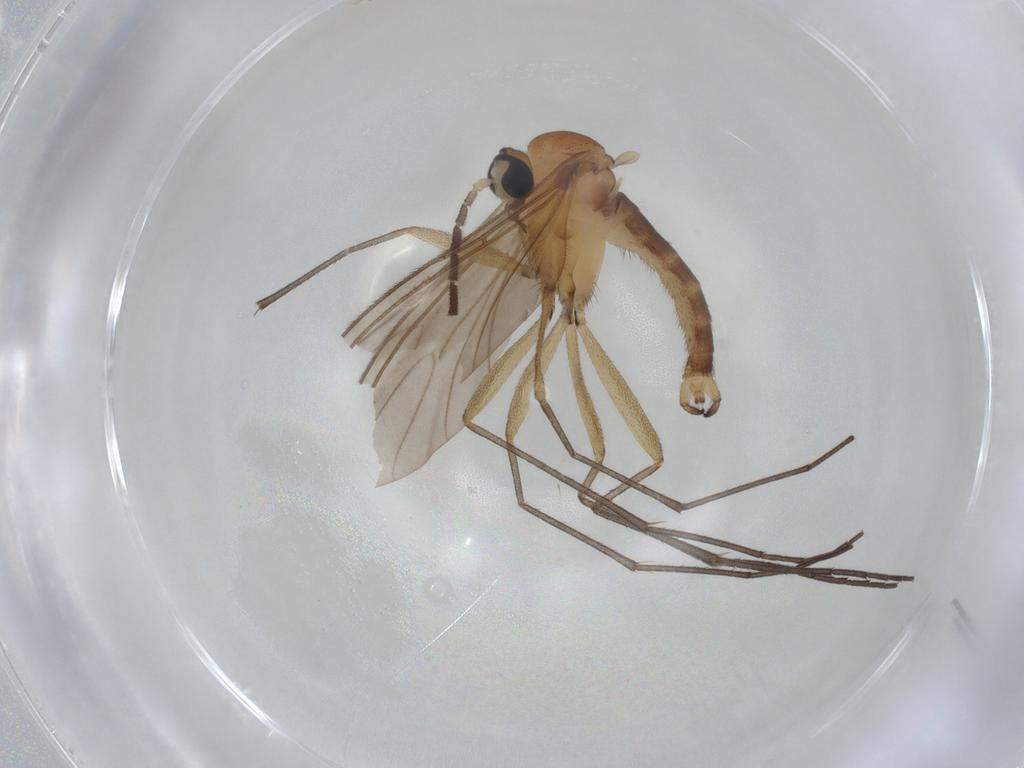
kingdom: Animalia
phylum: Arthropoda
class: Insecta
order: Diptera
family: Sciaridae
